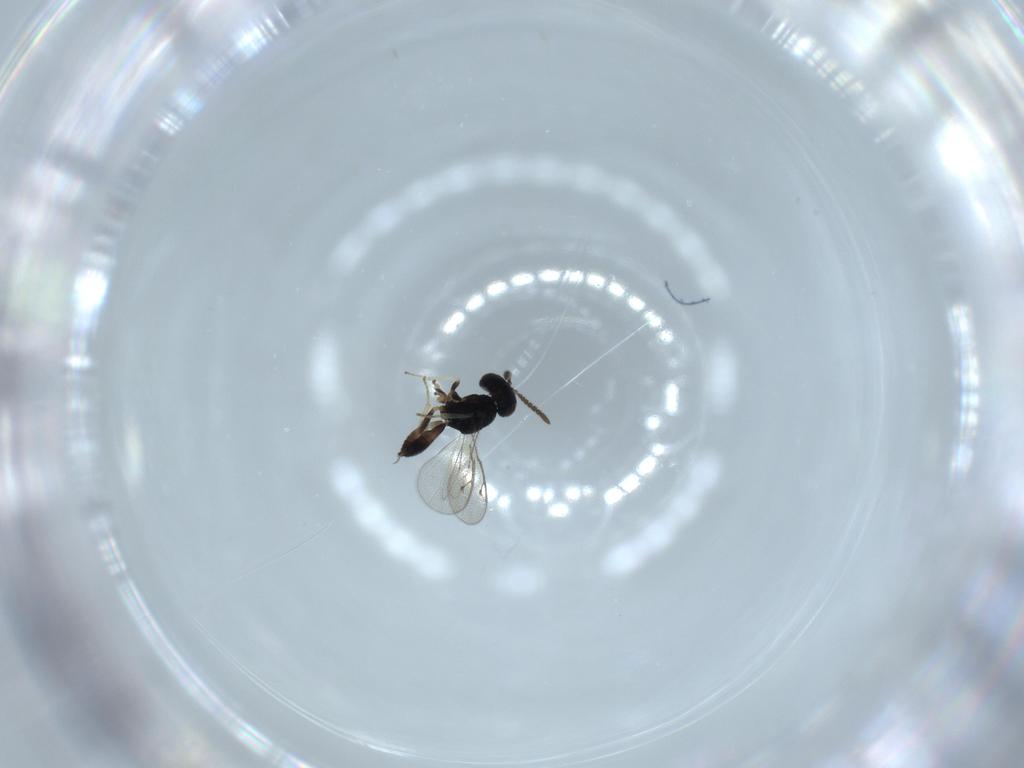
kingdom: Animalia
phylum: Arthropoda
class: Insecta
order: Hymenoptera
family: Pteromalidae
